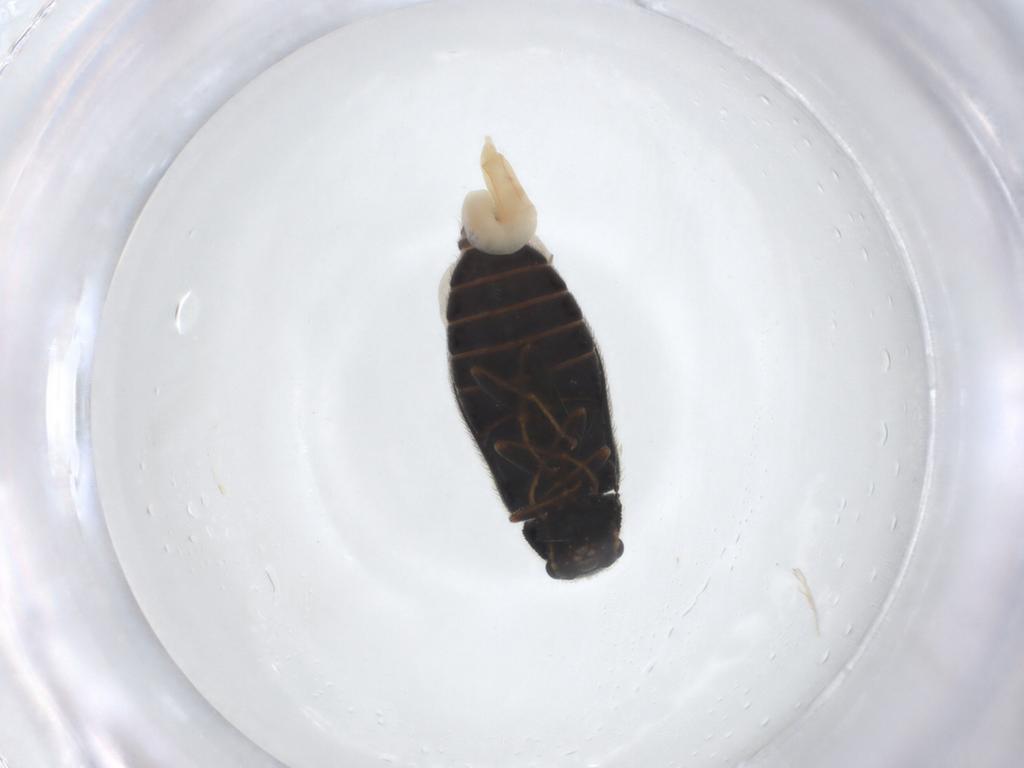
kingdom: Animalia
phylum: Arthropoda
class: Insecta
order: Coleoptera
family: Melyridae
